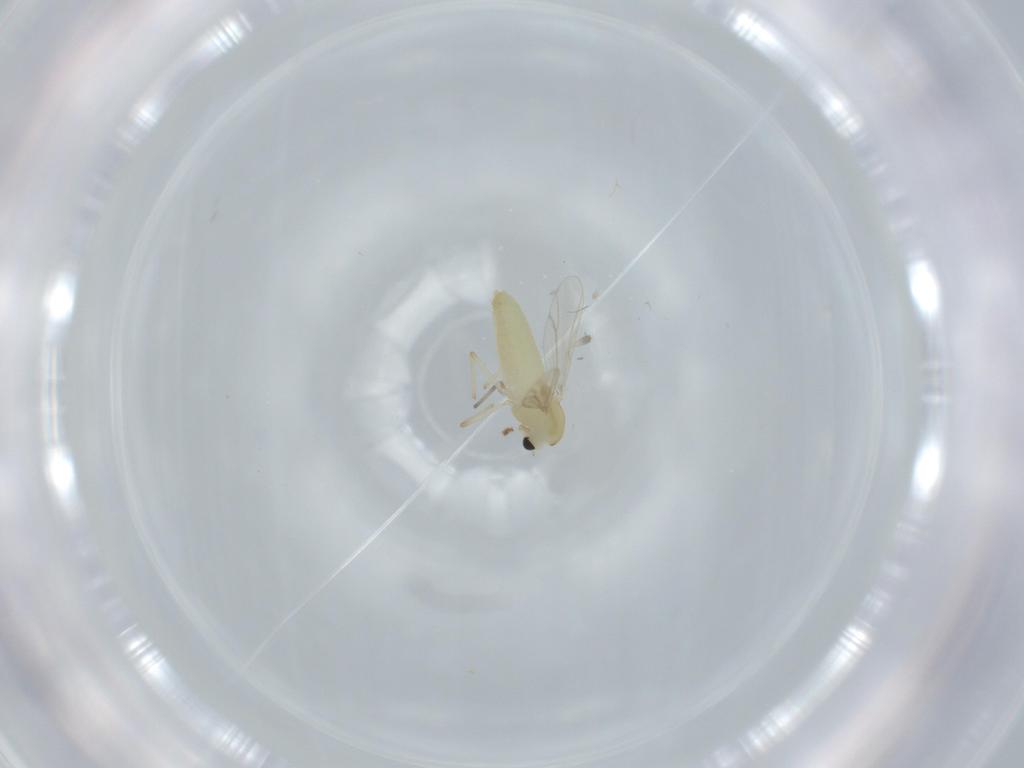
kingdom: Animalia
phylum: Arthropoda
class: Insecta
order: Diptera
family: Chironomidae
